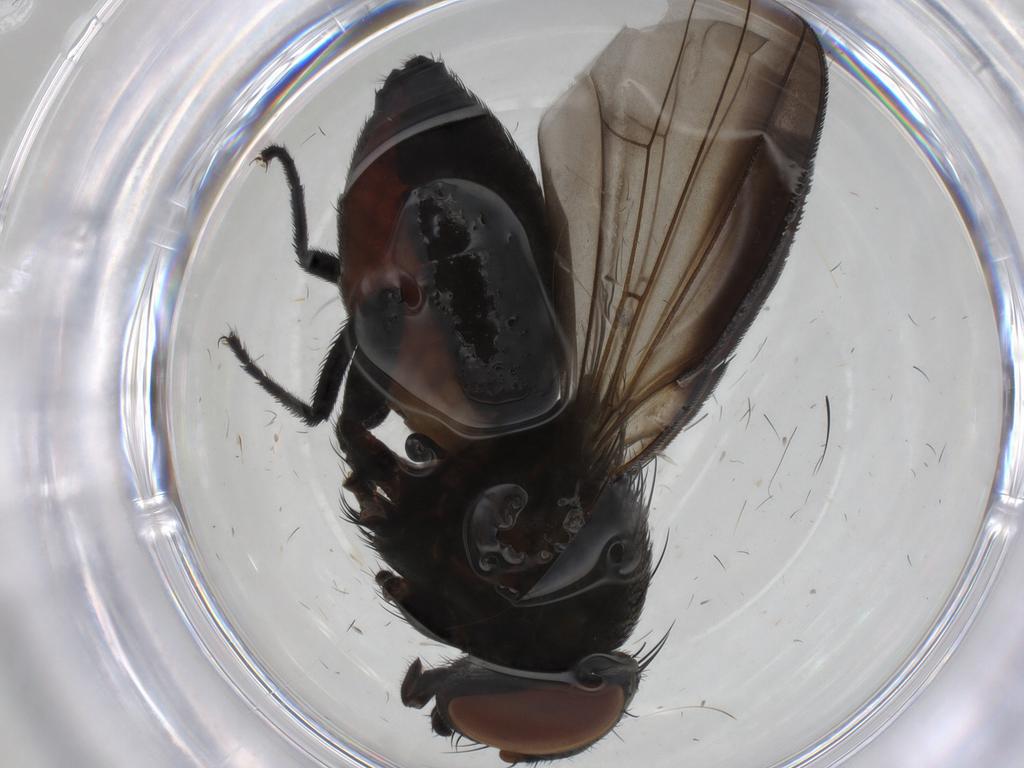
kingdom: Animalia
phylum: Arthropoda
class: Insecta
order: Diptera
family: Milichiidae
